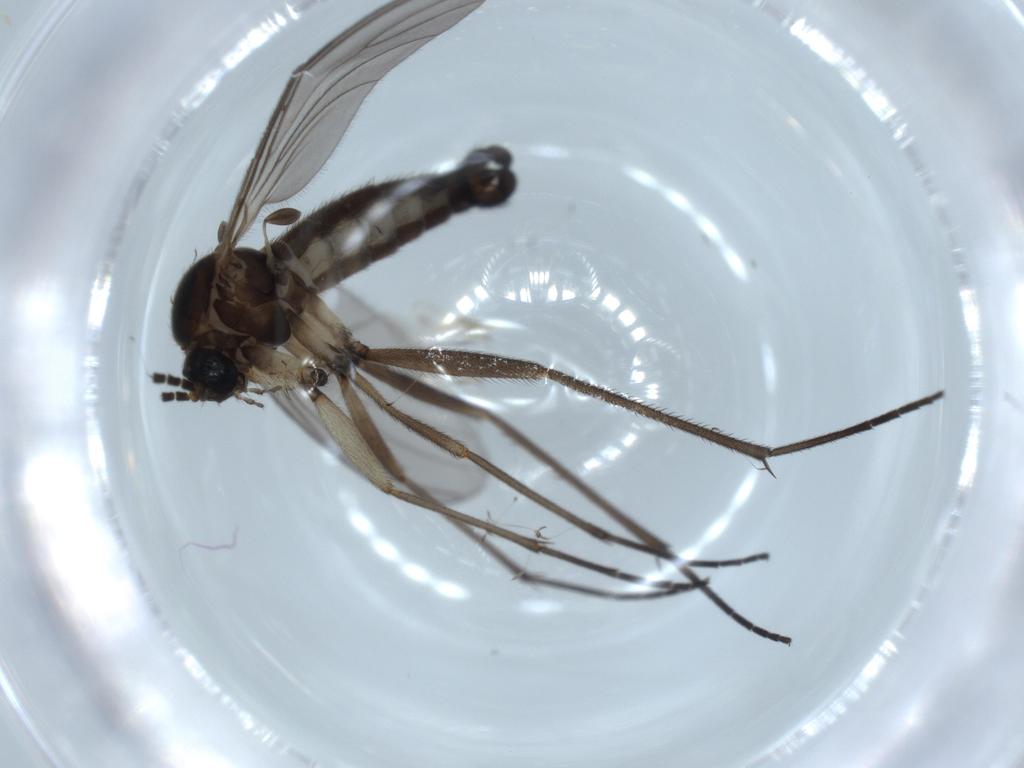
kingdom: Animalia
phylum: Arthropoda
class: Insecta
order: Diptera
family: Sciaridae
